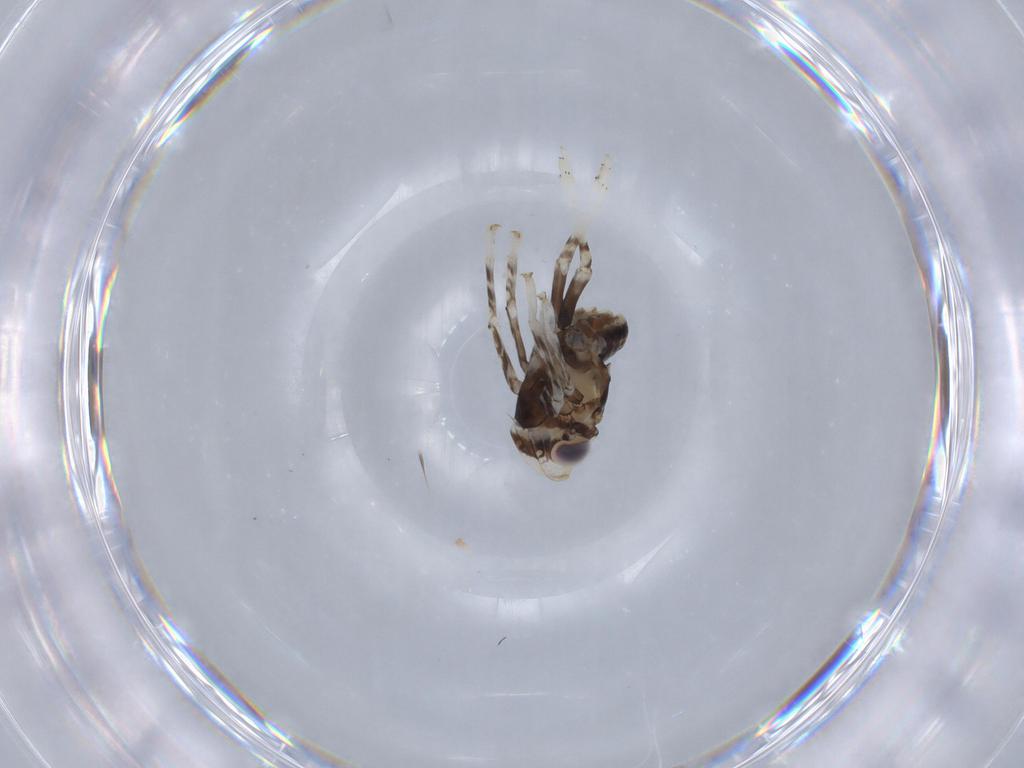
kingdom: Animalia
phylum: Arthropoda
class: Insecta
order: Hemiptera
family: Fulgoroidea_incertae_sedis
